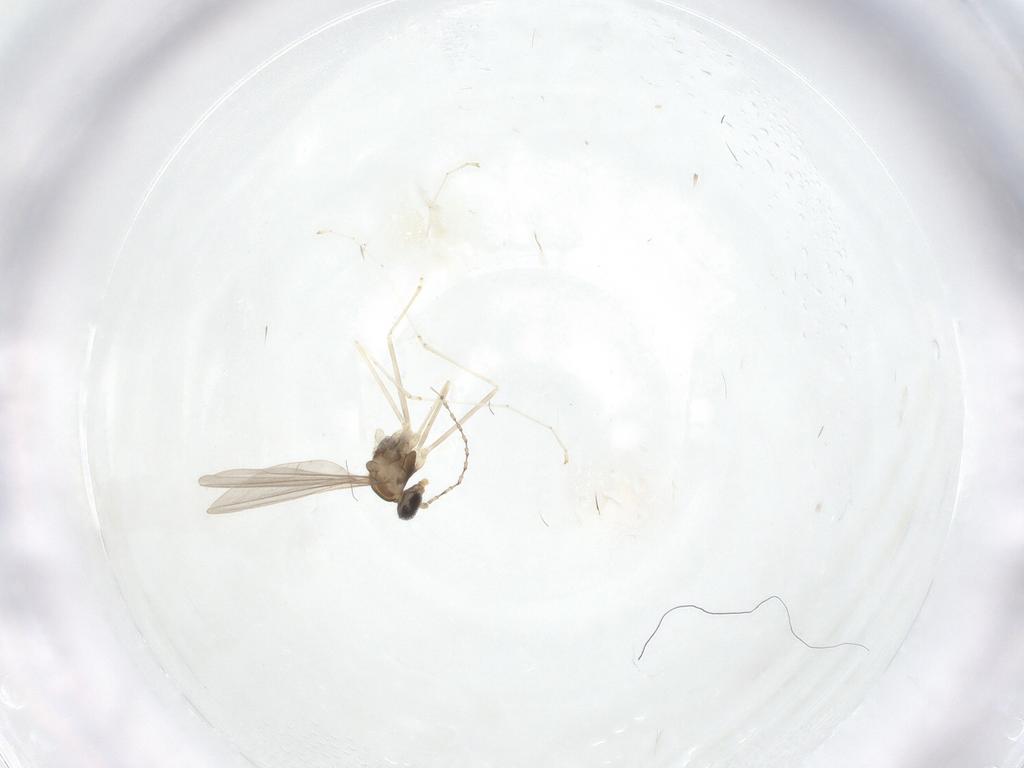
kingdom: Animalia
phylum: Arthropoda
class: Insecta
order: Diptera
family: Cecidomyiidae
